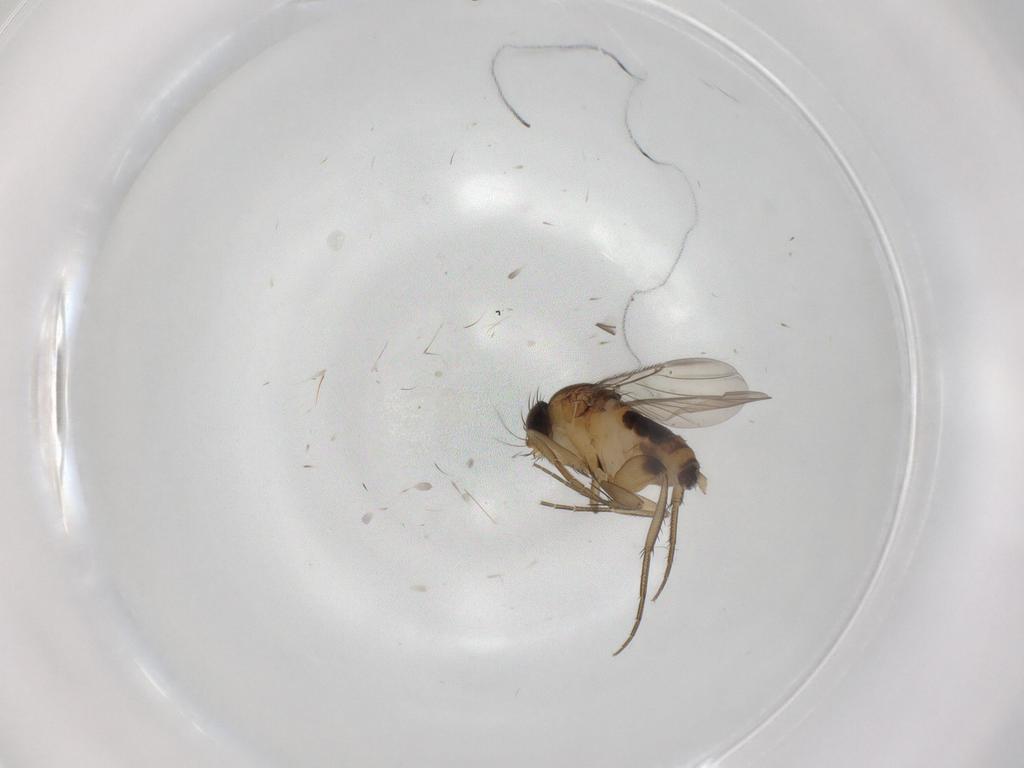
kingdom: Animalia
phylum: Arthropoda
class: Insecta
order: Diptera
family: Phoridae
